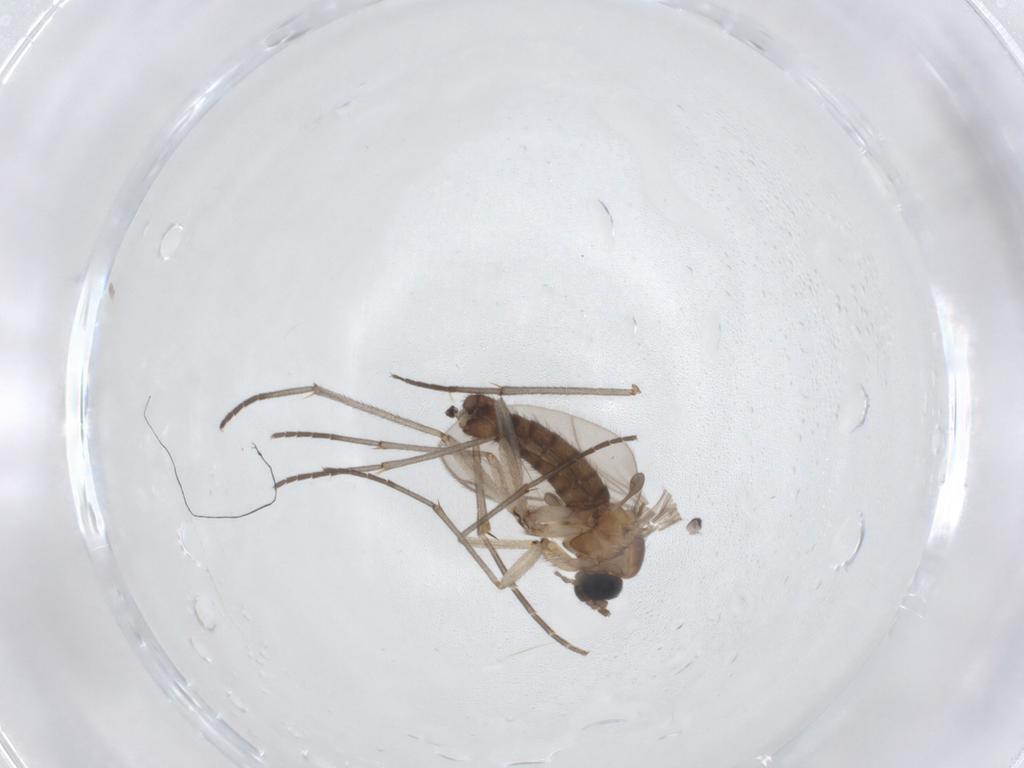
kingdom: Animalia
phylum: Arthropoda
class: Insecta
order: Diptera
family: Sciaridae
